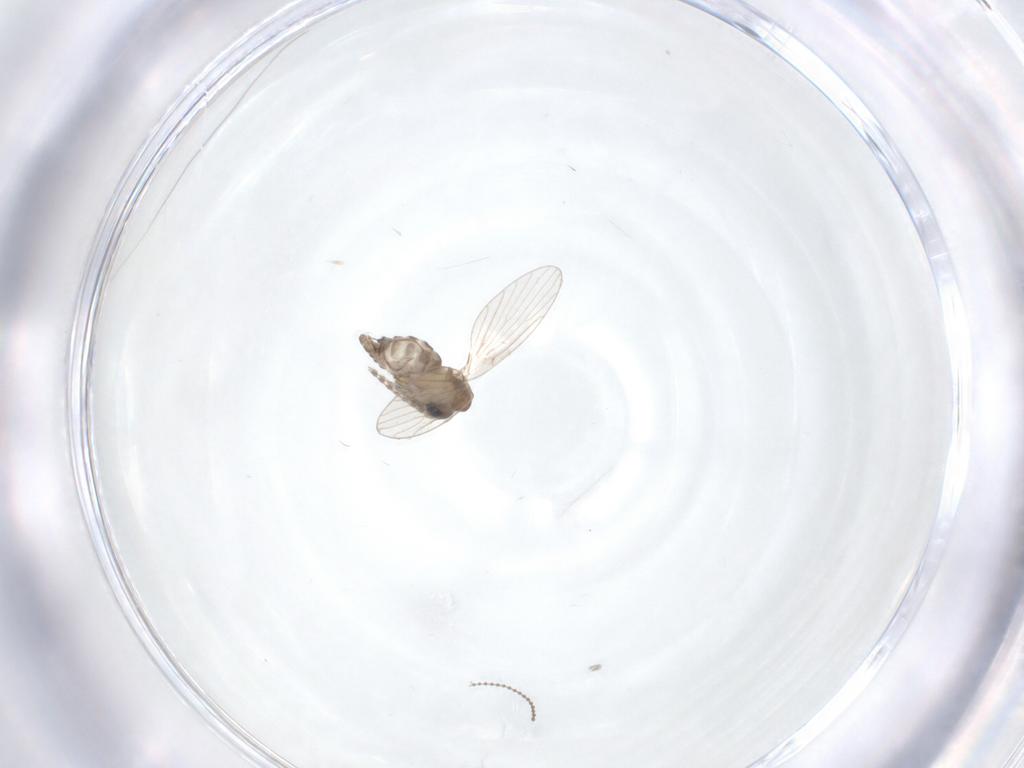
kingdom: Animalia
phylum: Arthropoda
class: Insecta
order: Diptera
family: Cecidomyiidae
